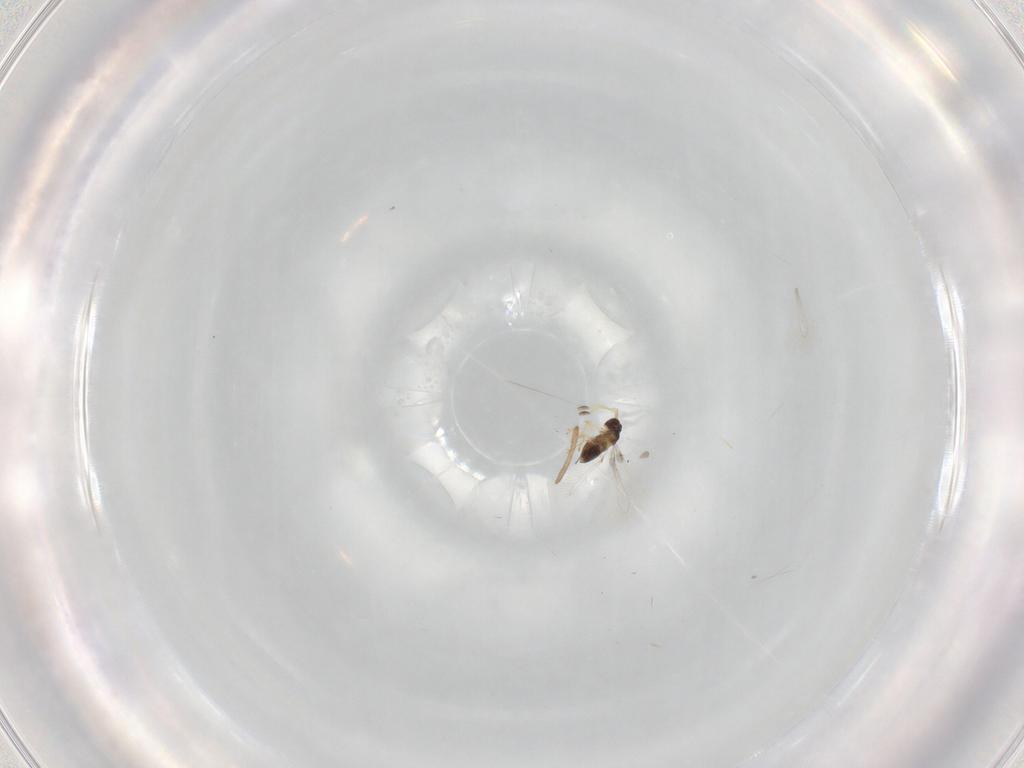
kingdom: Animalia
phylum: Arthropoda
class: Insecta
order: Hymenoptera
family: Mymaridae
